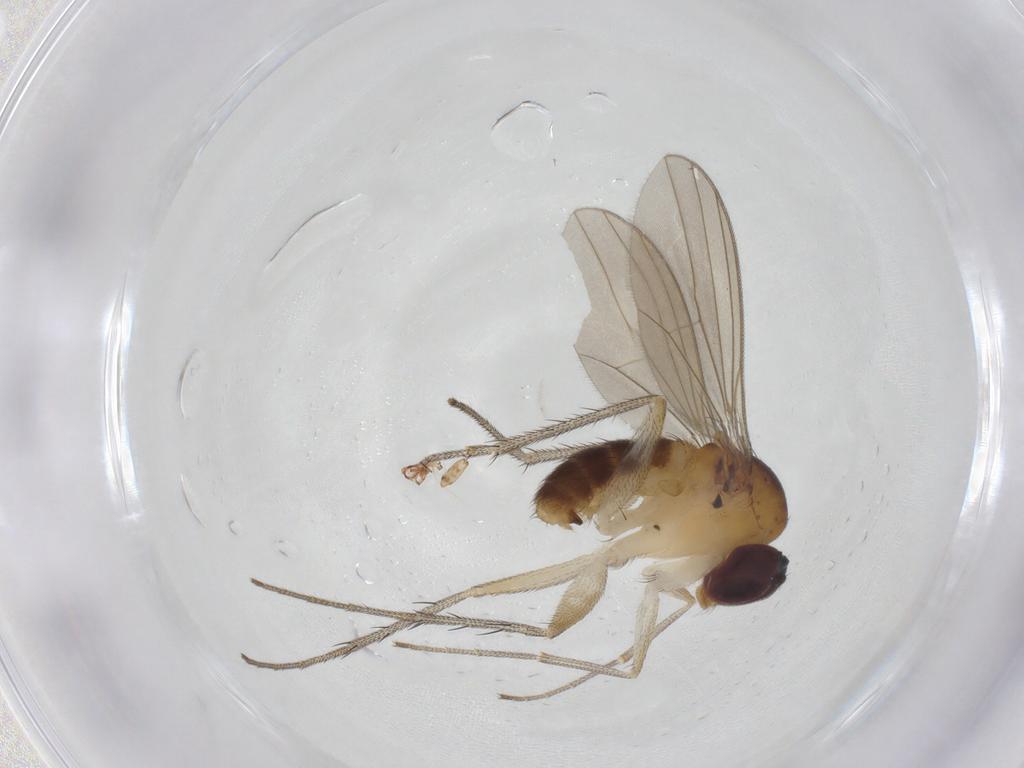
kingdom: Animalia
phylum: Arthropoda
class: Insecta
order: Diptera
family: Dolichopodidae
